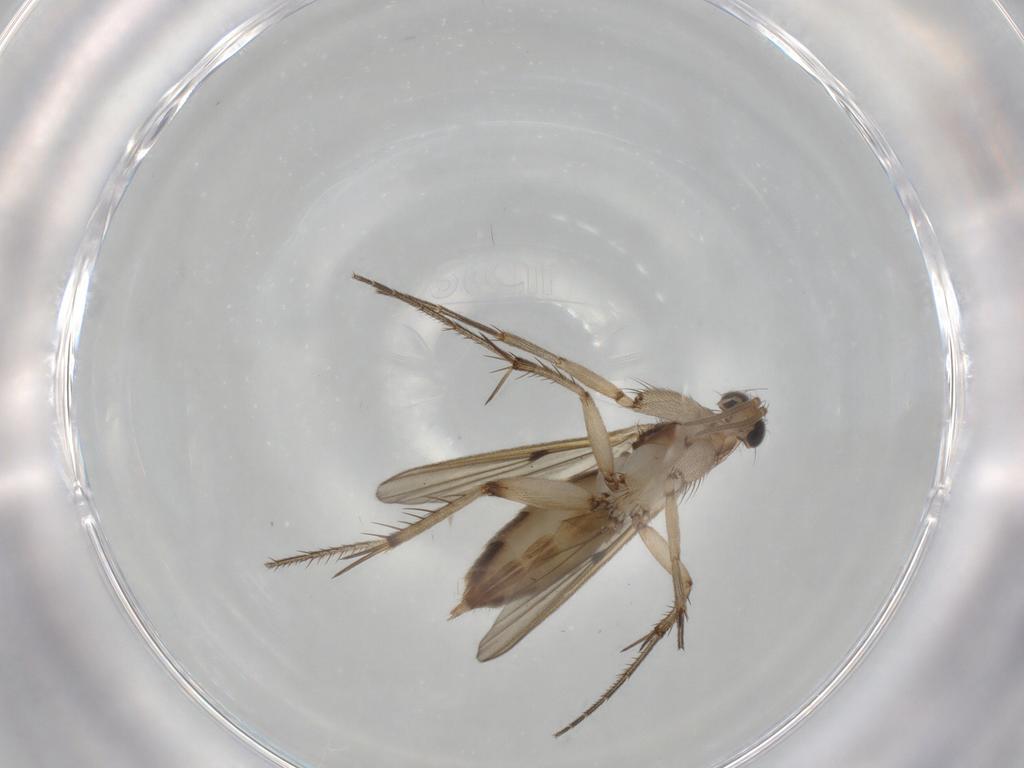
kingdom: Animalia
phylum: Arthropoda
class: Insecta
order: Diptera
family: Mycetophilidae
